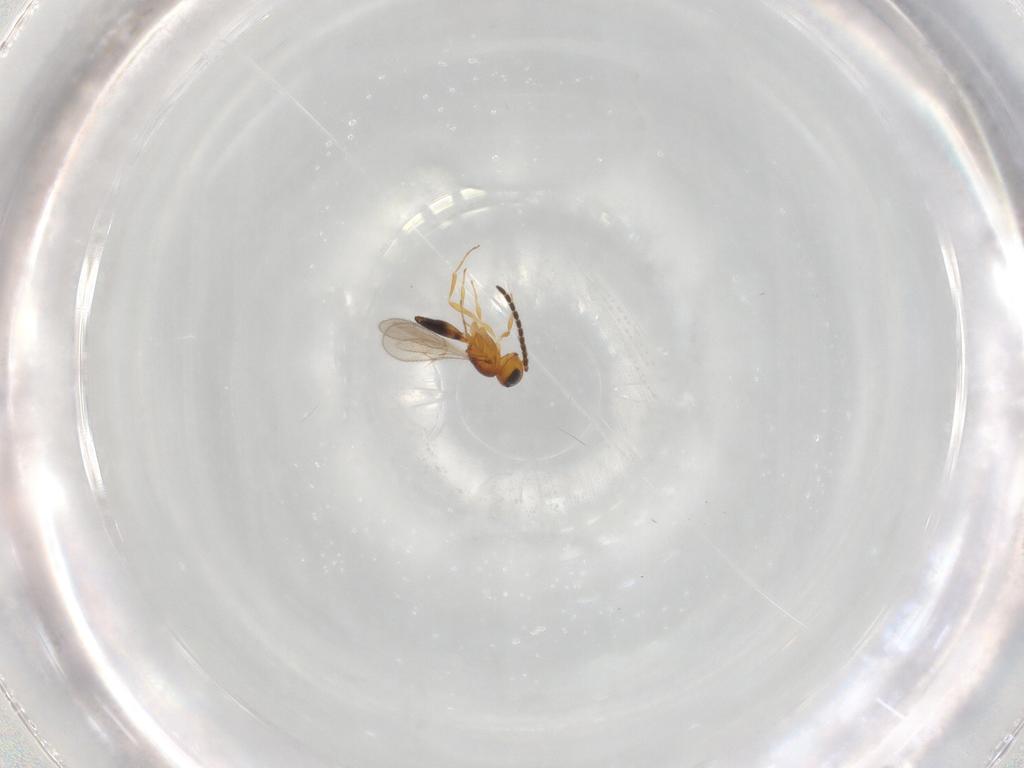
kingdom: Animalia
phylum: Arthropoda
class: Insecta
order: Hymenoptera
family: Scelionidae
